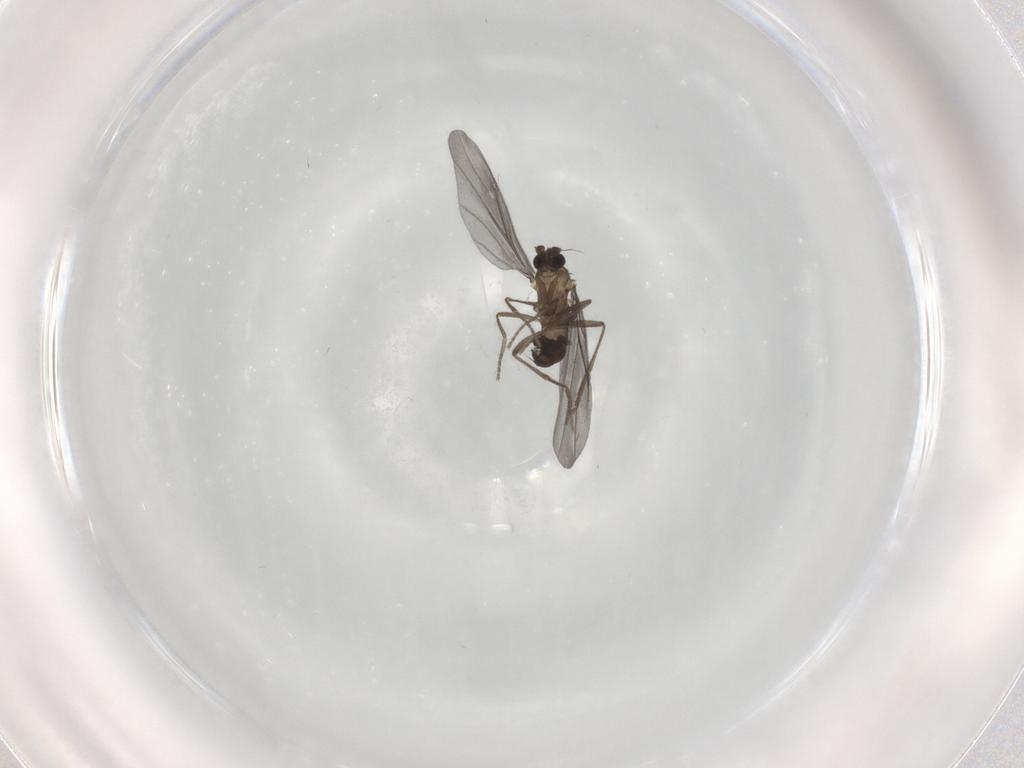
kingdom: Animalia
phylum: Arthropoda
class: Insecta
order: Diptera
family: Phoridae
